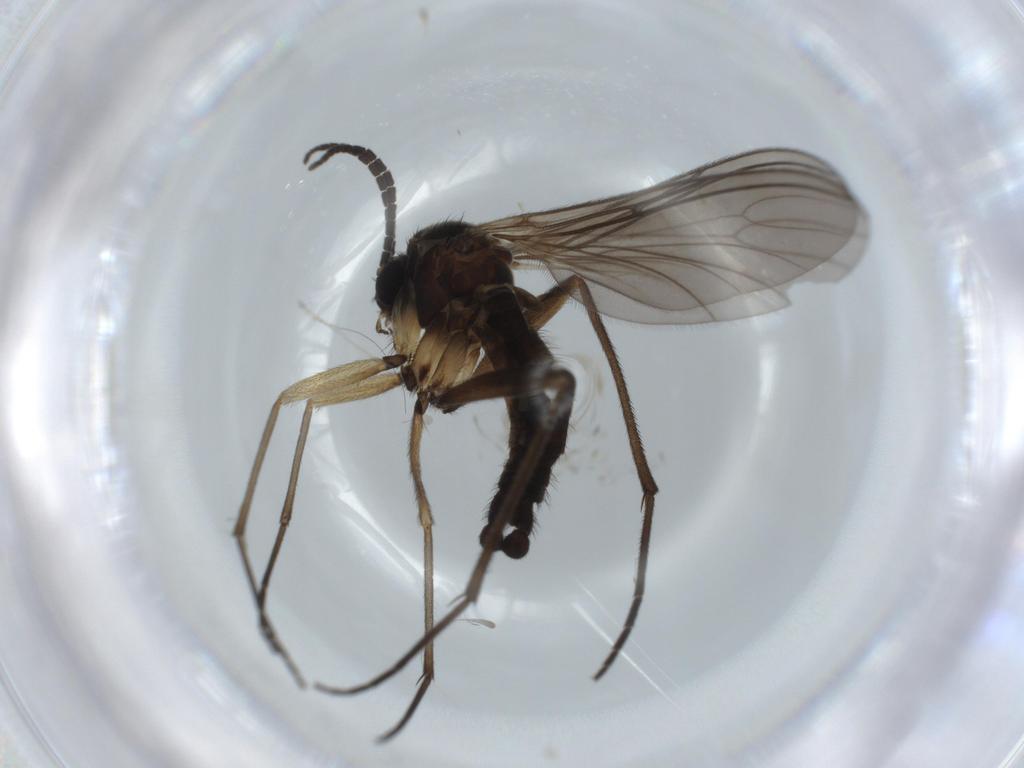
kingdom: Animalia
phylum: Arthropoda
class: Insecta
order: Diptera
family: Sciaridae
